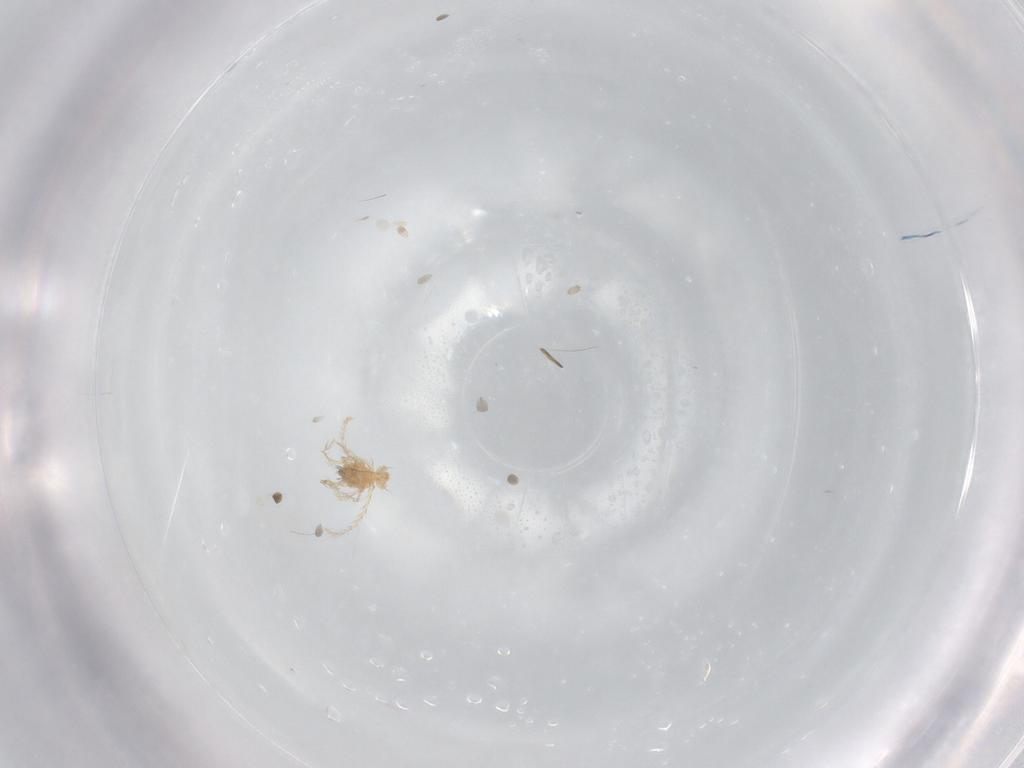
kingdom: Animalia
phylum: Arthropoda
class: Arachnida
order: Trombidiformes
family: Erythraeidae
